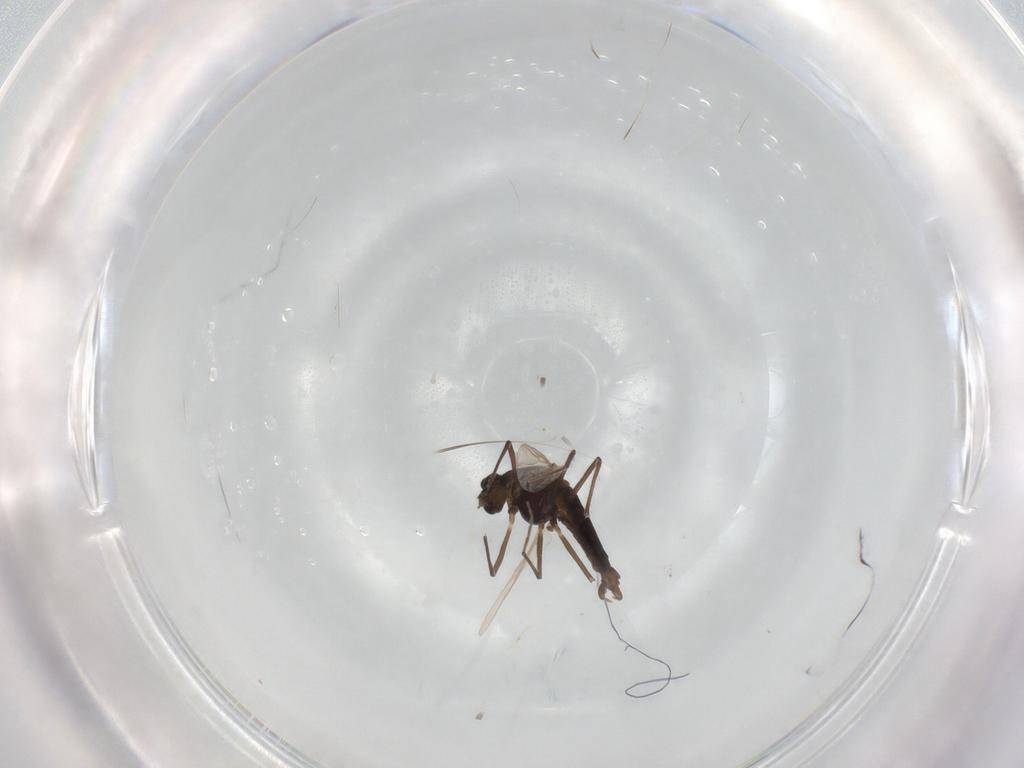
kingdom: Animalia
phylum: Arthropoda
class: Insecta
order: Diptera
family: Chironomidae
